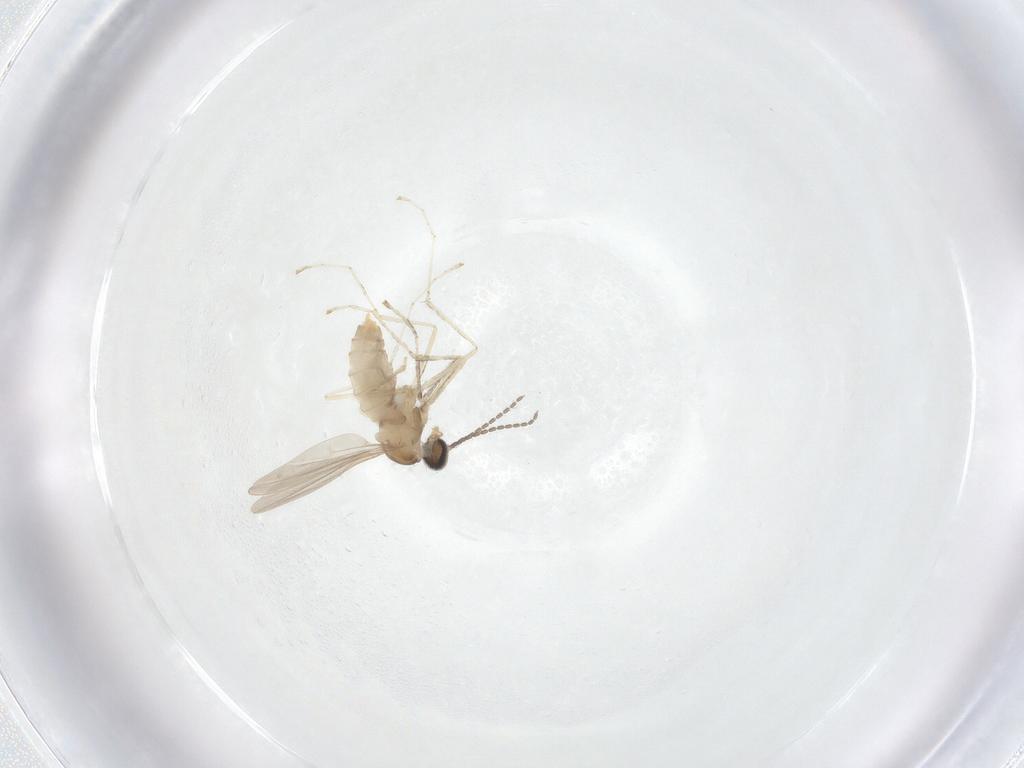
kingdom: Animalia
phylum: Arthropoda
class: Insecta
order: Diptera
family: Cecidomyiidae
